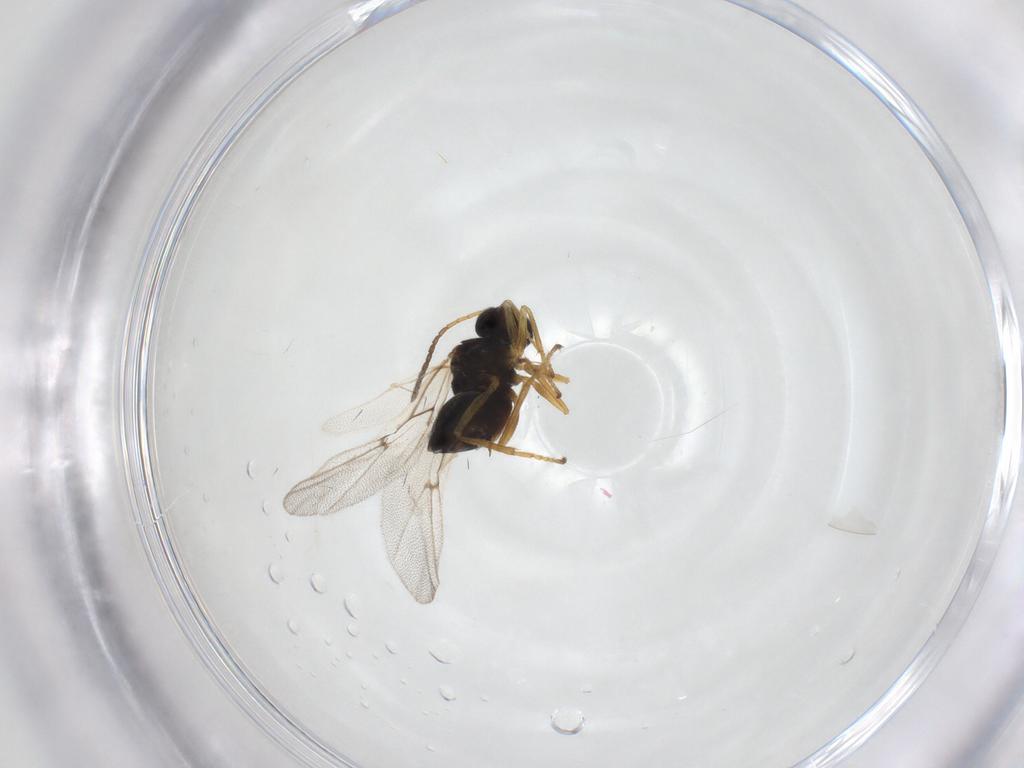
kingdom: Animalia
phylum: Arthropoda
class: Insecta
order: Hymenoptera
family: Cynipidae
